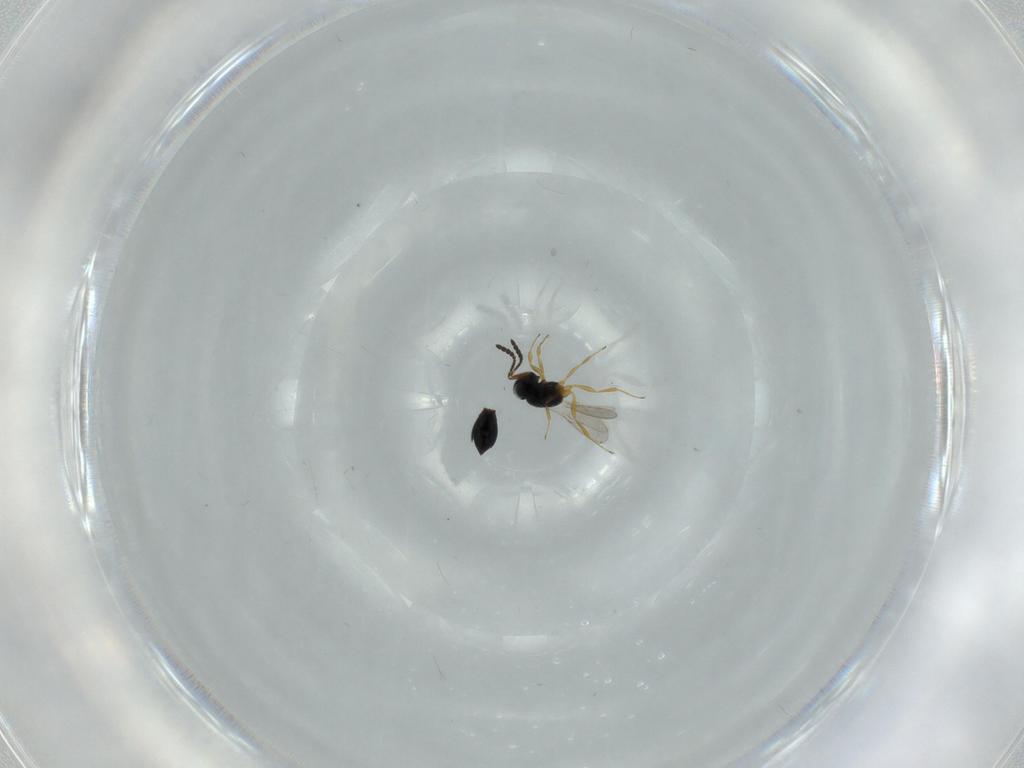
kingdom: Animalia
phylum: Arthropoda
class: Insecta
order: Hymenoptera
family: Scelionidae
